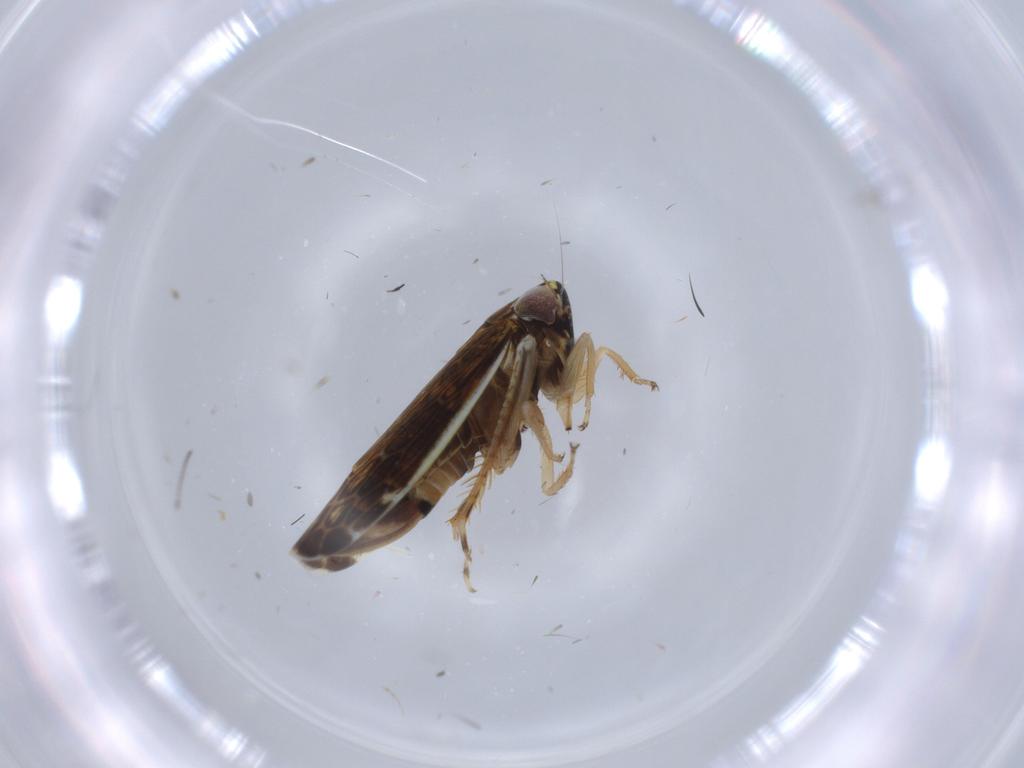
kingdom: Animalia
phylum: Arthropoda
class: Insecta
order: Hemiptera
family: Cicadellidae
